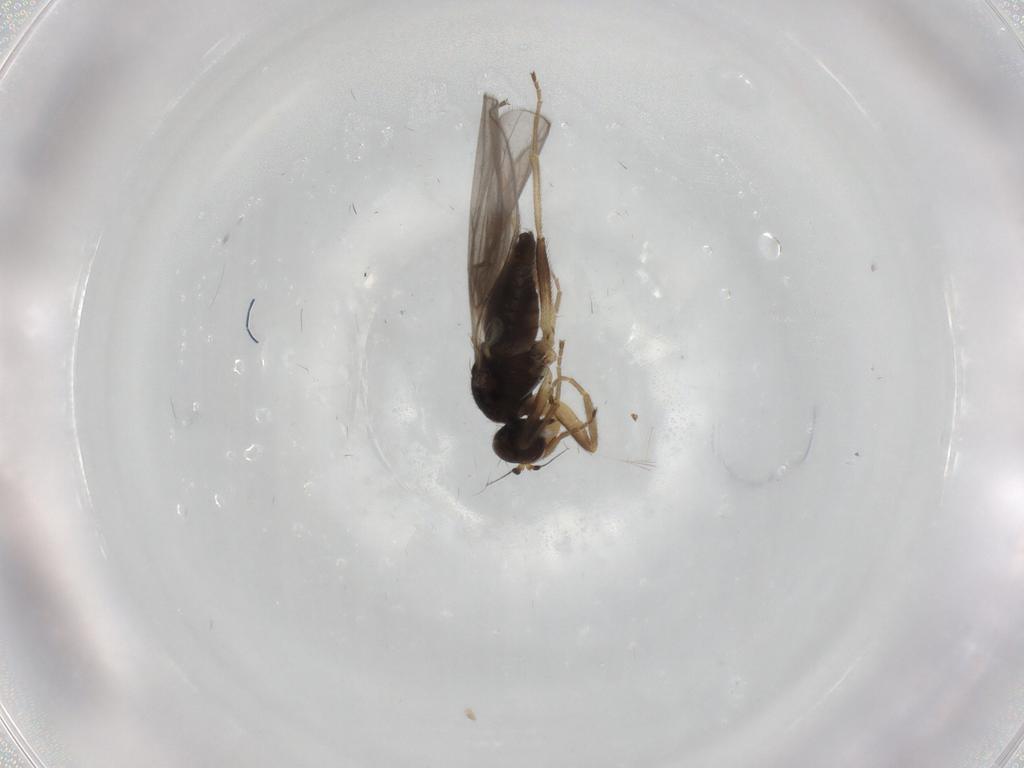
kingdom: Animalia
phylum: Arthropoda
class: Insecta
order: Diptera
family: Hybotidae
